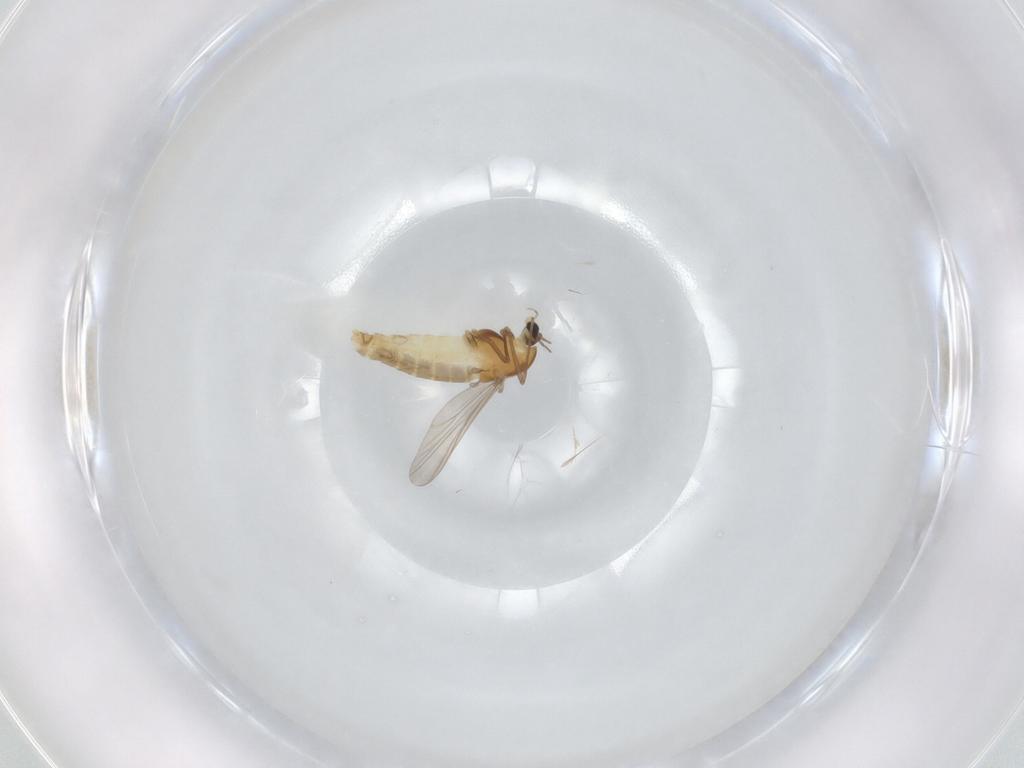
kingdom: Animalia
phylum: Arthropoda
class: Insecta
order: Diptera
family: Chironomidae
